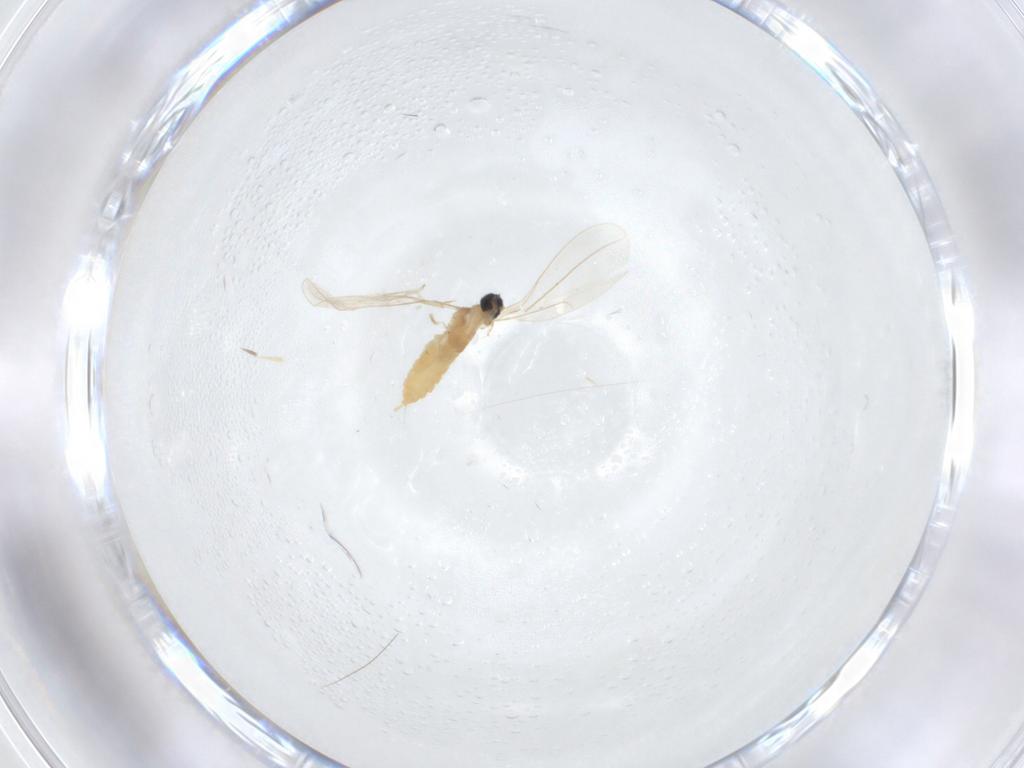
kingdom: Animalia
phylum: Arthropoda
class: Insecta
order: Diptera
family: Cecidomyiidae
